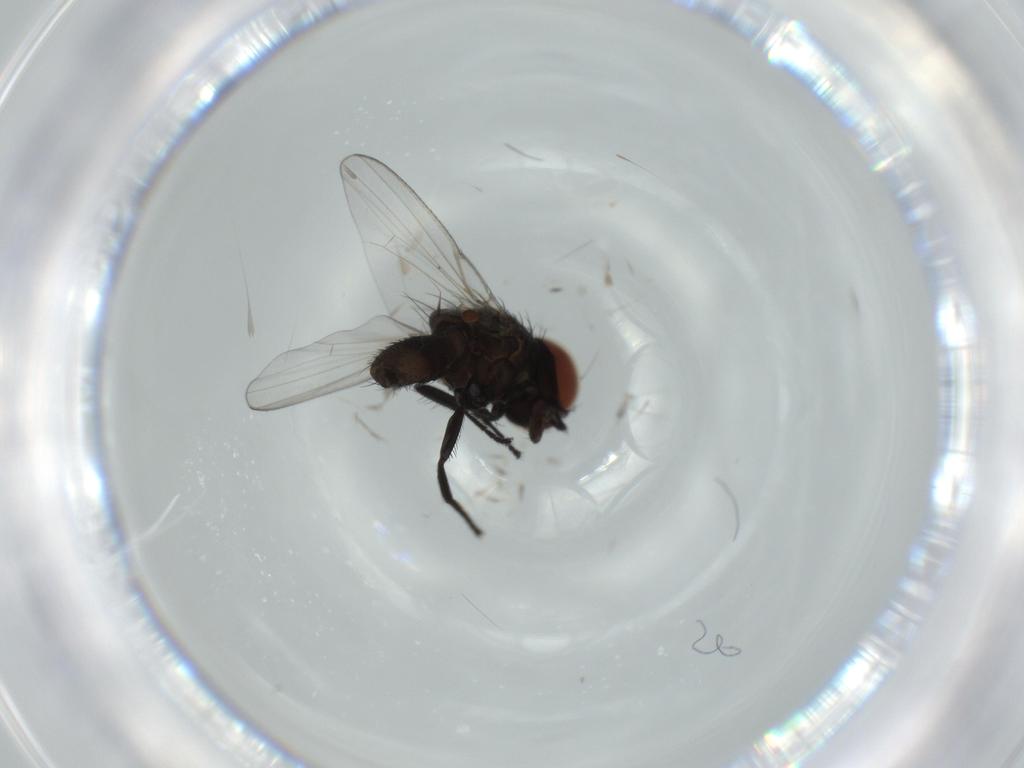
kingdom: Animalia
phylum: Arthropoda
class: Insecta
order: Diptera
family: Milichiidae
